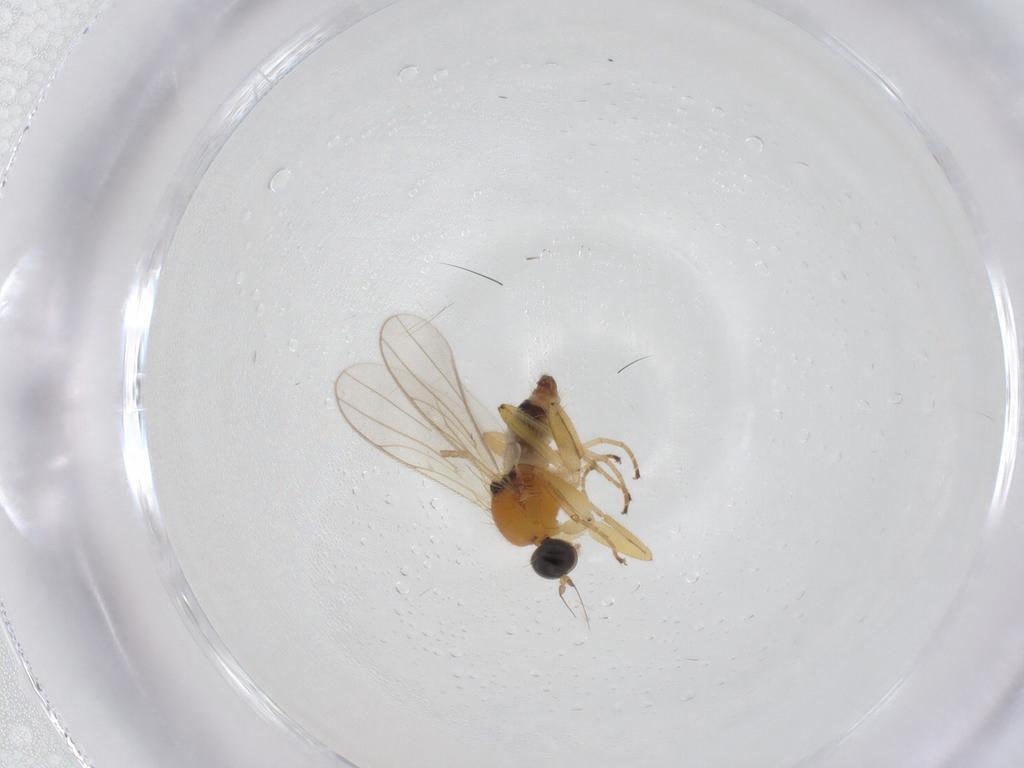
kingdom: Animalia
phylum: Arthropoda
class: Insecta
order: Diptera
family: Hybotidae
